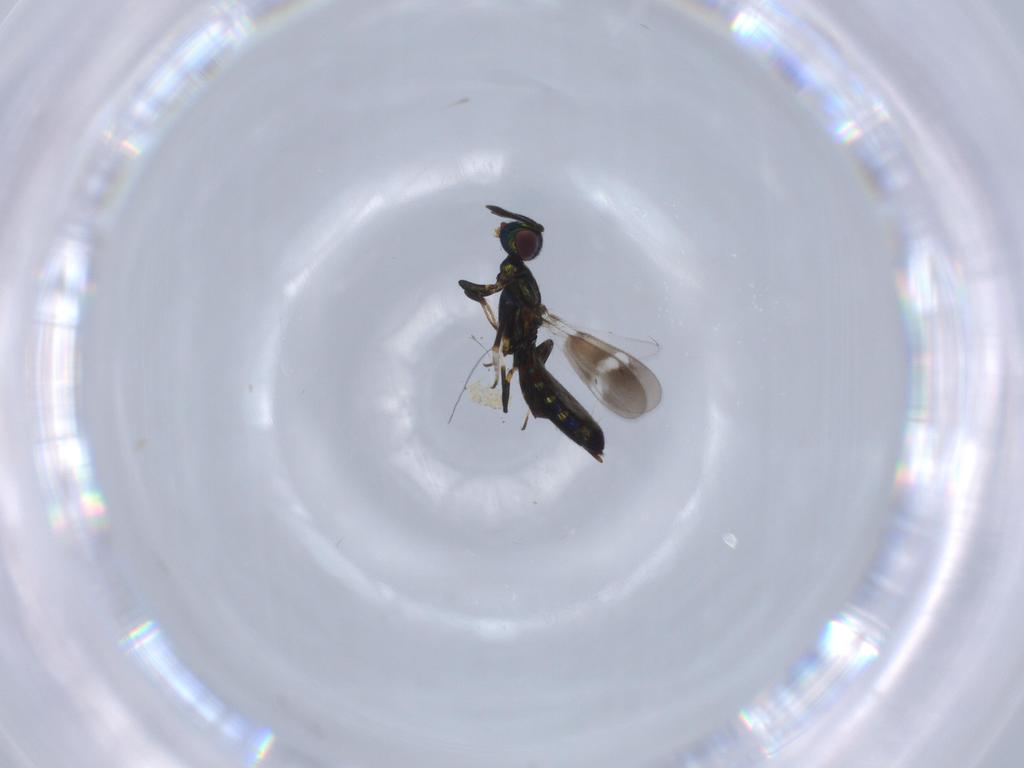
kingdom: Animalia
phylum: Arthropoda
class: Insecta
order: Hymenoptera
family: Eupelmidae
